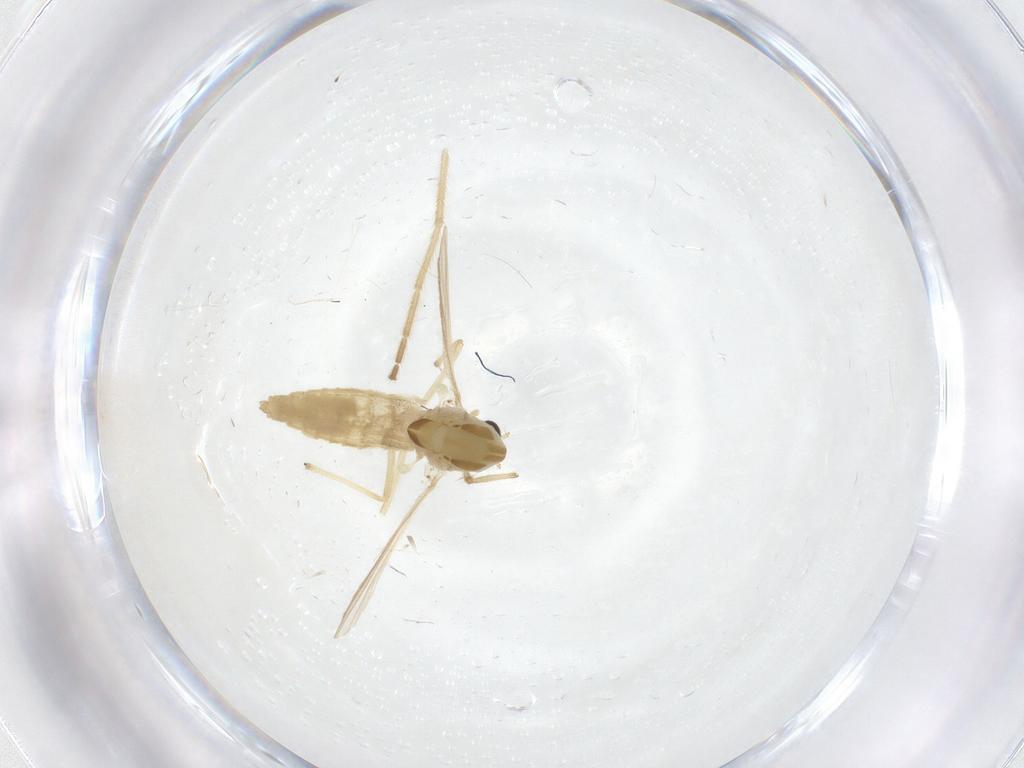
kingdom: Animalia
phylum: Arthropoda
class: Insecta
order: Diptera
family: Chironomidae
